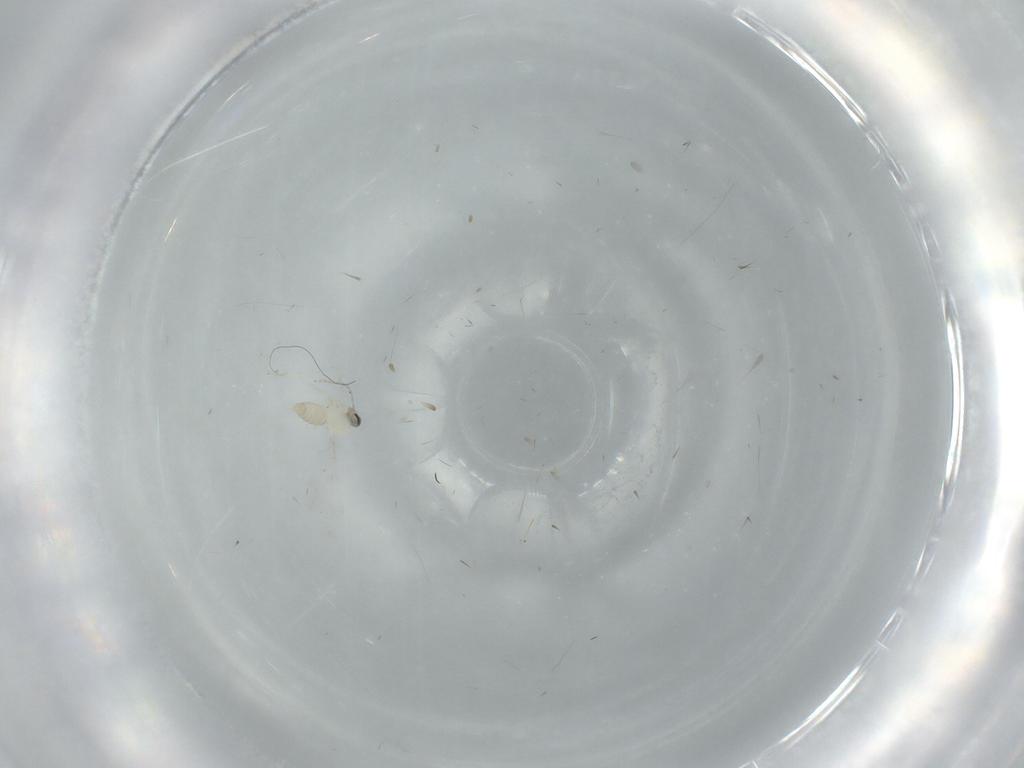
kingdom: Animalia
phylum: Arthropoda
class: Insecta
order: Diptera
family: Cecidomyiidae
